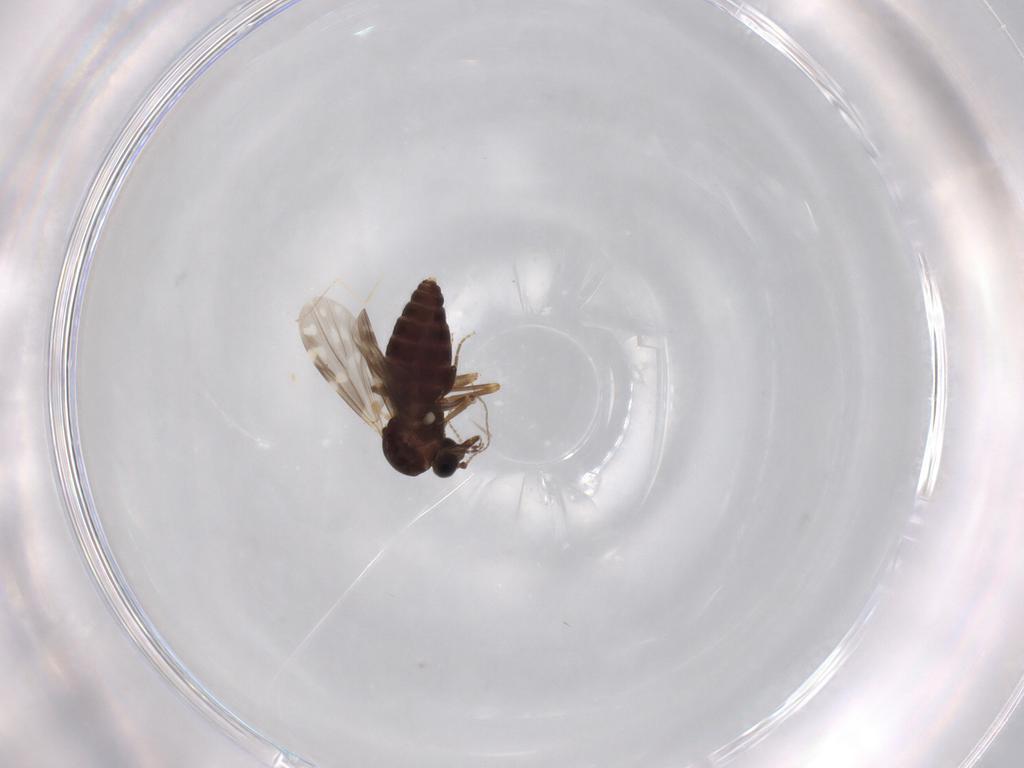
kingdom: Animalia
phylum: Arthropoda
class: Insecta
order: Diptera
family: Ceratopogonidae
